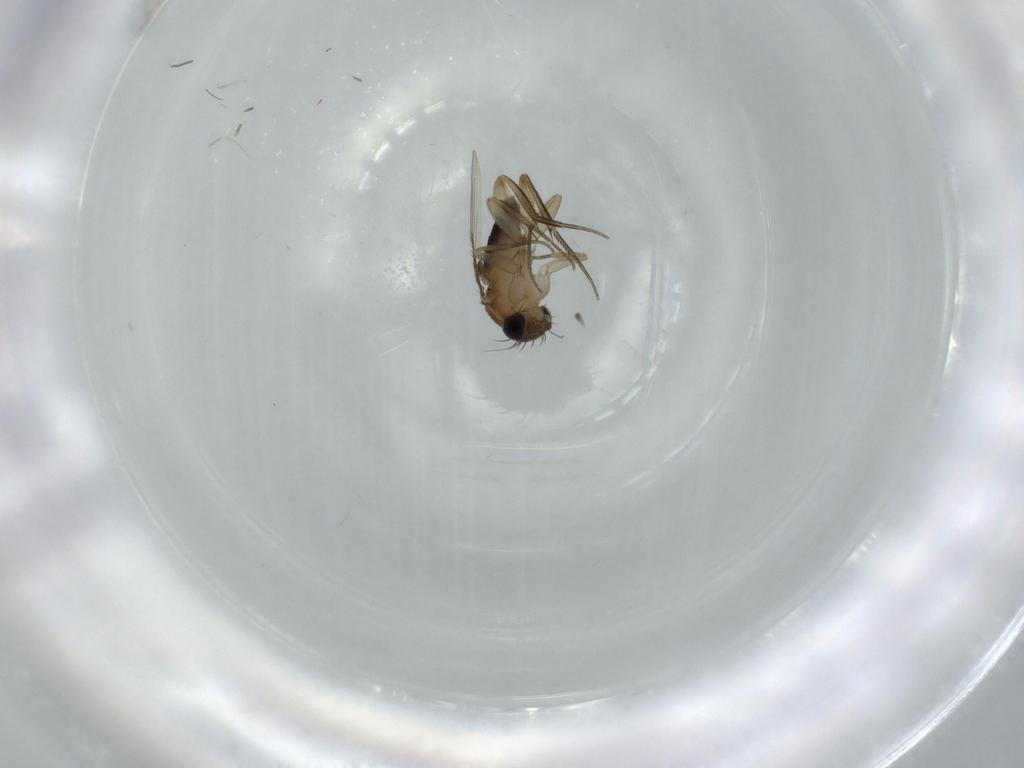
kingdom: Animalia
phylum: Arthropoda
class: Insecta
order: Diptera
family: Phoridae
